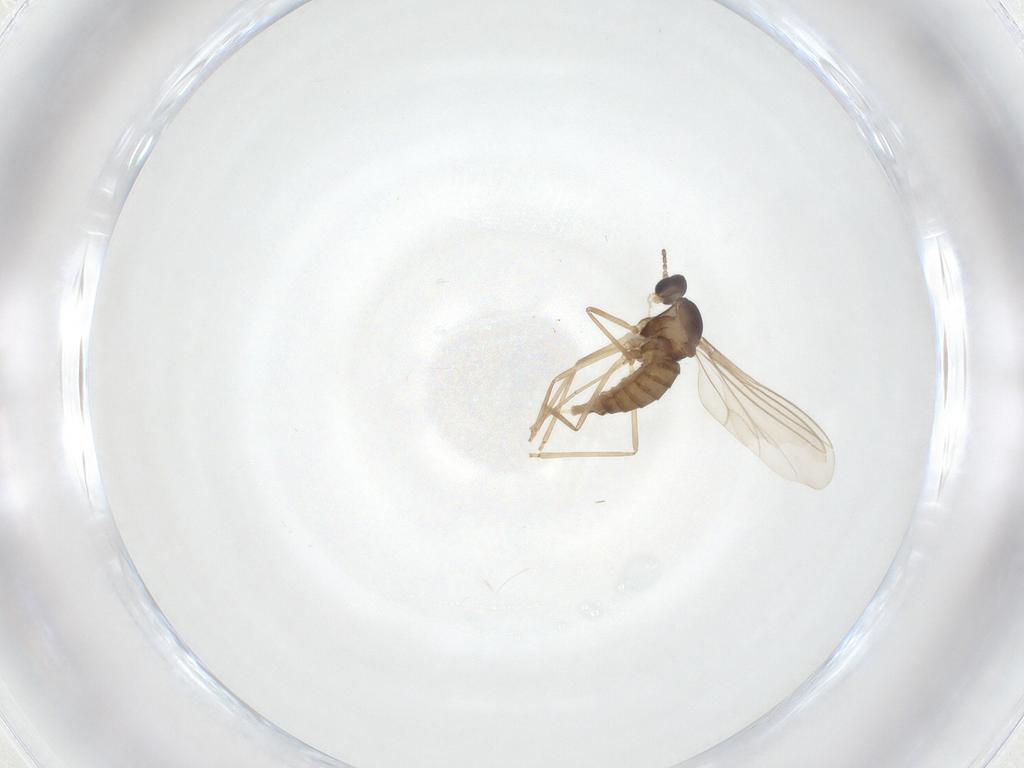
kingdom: Animalia
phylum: Arthropoda
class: Insecta
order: Diptera
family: Cecidomyiidae
